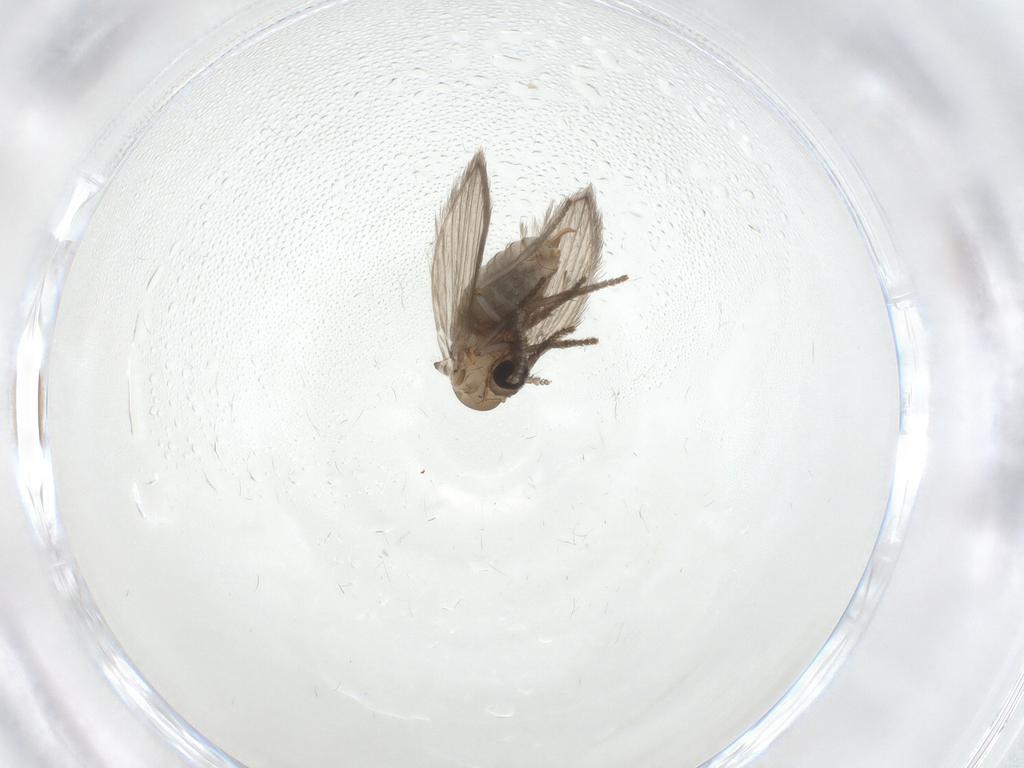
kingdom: Animalia
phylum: Arthropoda
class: Insecta
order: Diptera
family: Psychodidae
